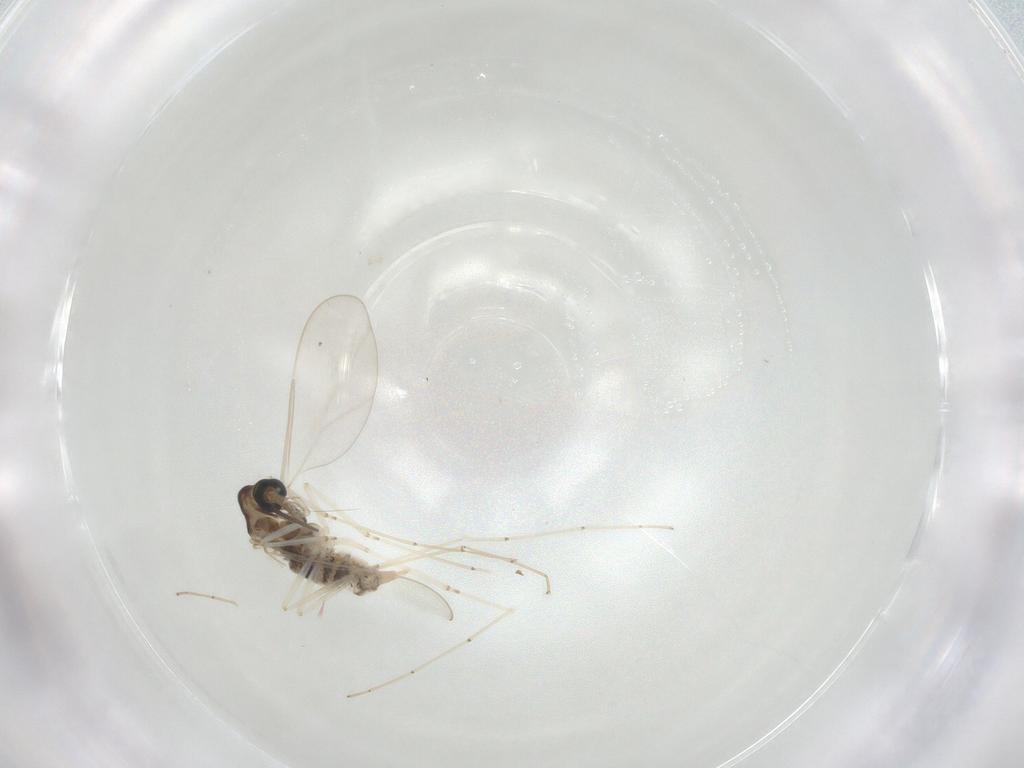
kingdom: Animalia
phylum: Arthropoda
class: Insecta
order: Diptera
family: Cecidomyiidae
